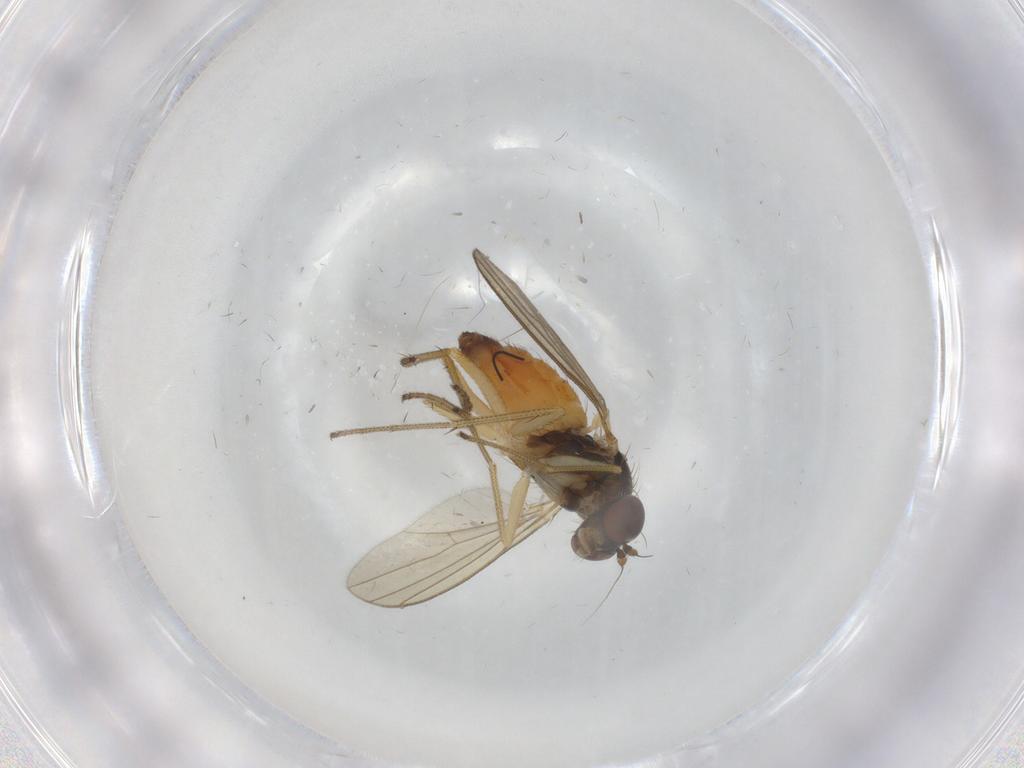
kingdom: Animalia
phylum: Arthropoda
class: Insecta
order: Diptera
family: Dolichopodidae
